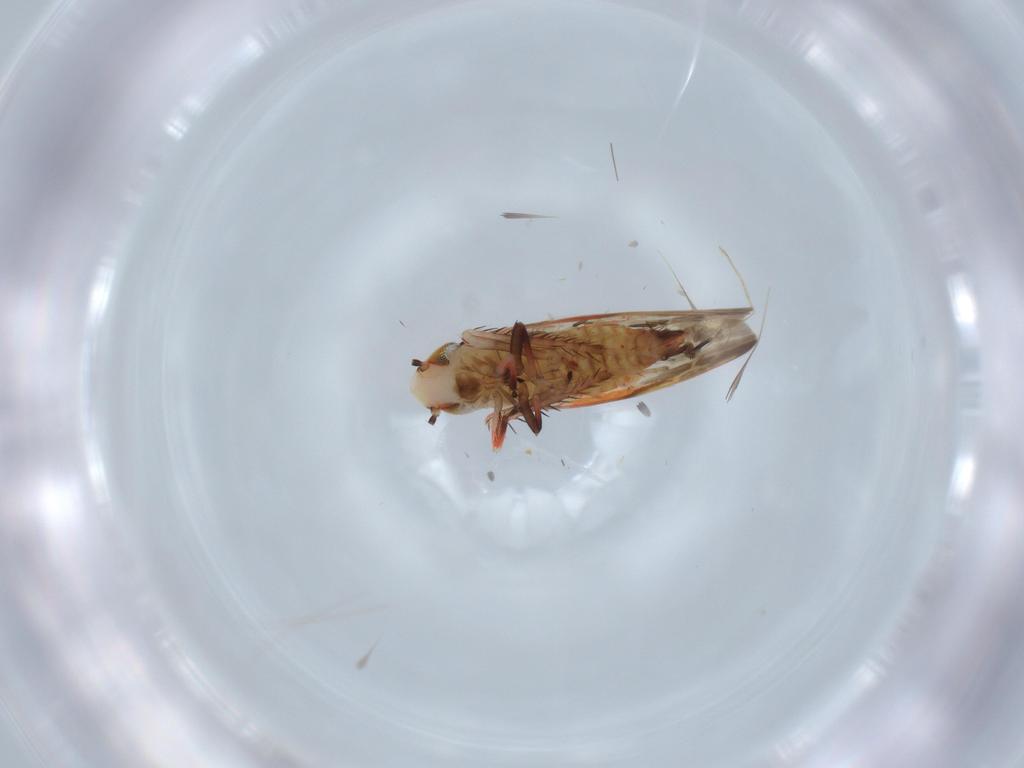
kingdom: Animalia
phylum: Arthropoda
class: Insecta
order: Hemiptera
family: Cicadellidae
